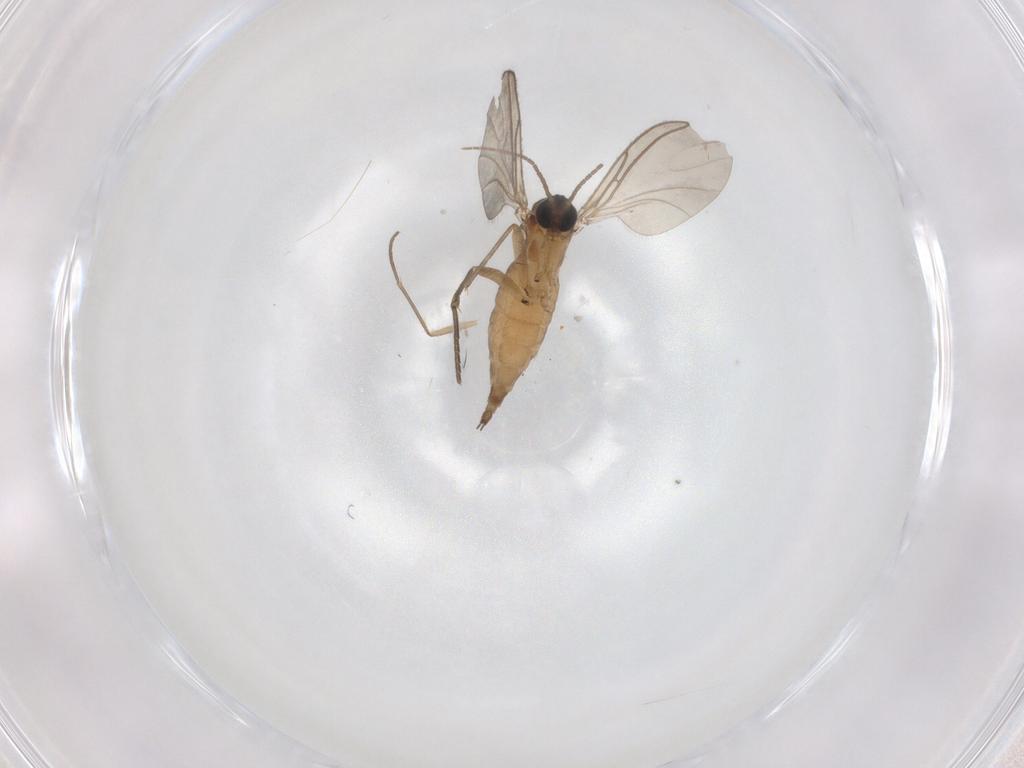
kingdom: Animalia
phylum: Arthropoda
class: Insecta
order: Diptera
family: Sciaridae
